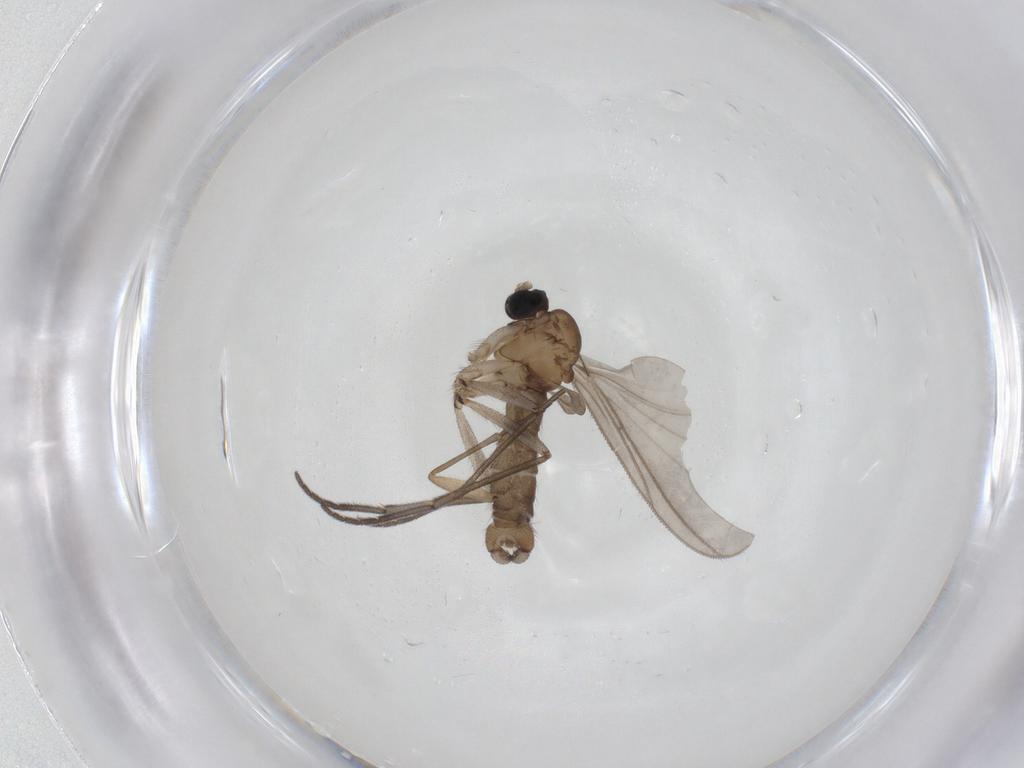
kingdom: Animalia
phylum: Arthropoda
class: Insecta
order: Diptera
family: Sciaridae
